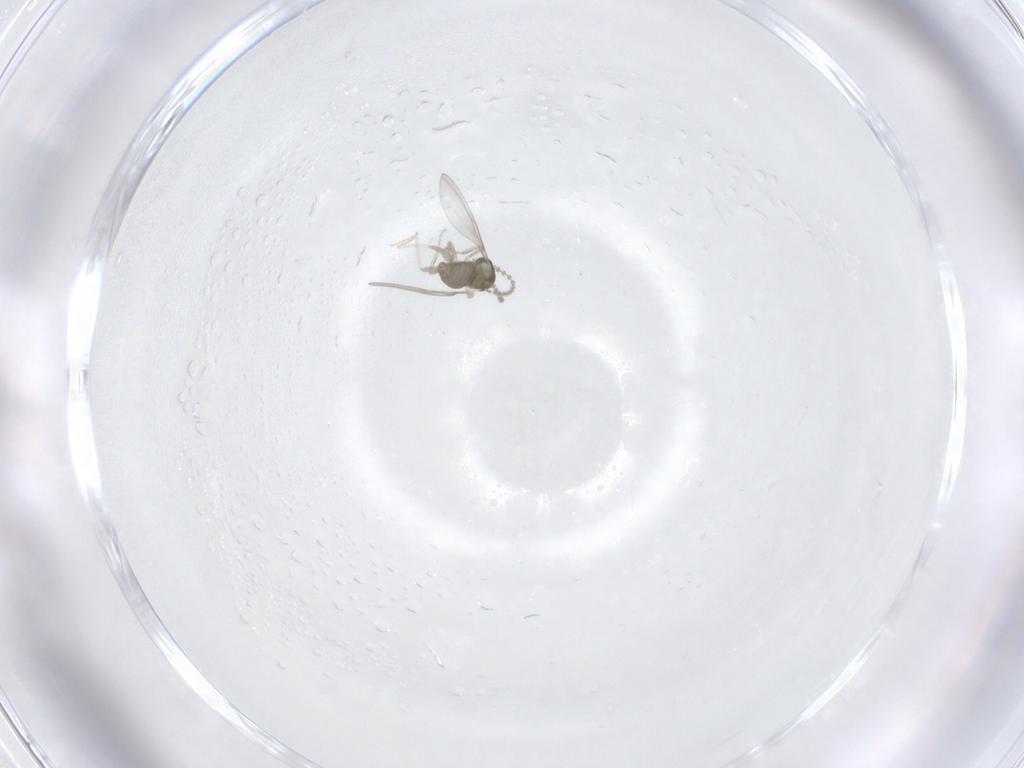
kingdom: Animalia
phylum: Arthropoda
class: Insecta
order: Diptera
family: Cecidomyiidae
